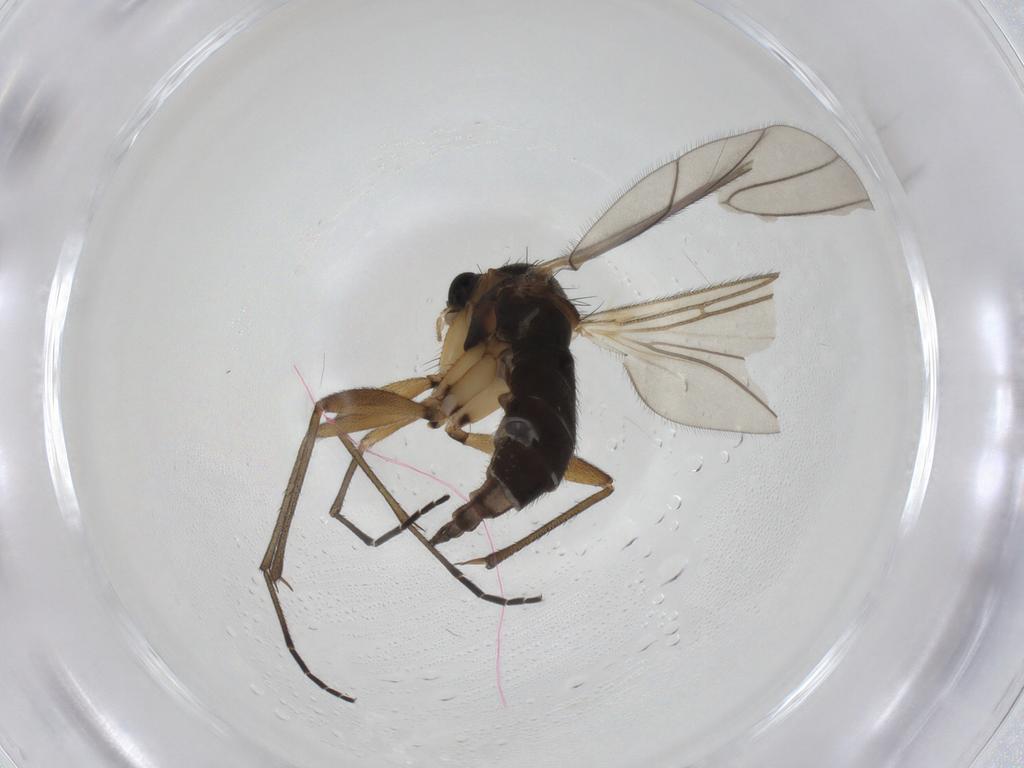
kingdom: Animalia
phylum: Arthropoda
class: Insecta
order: Diptera
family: Sciaridae
